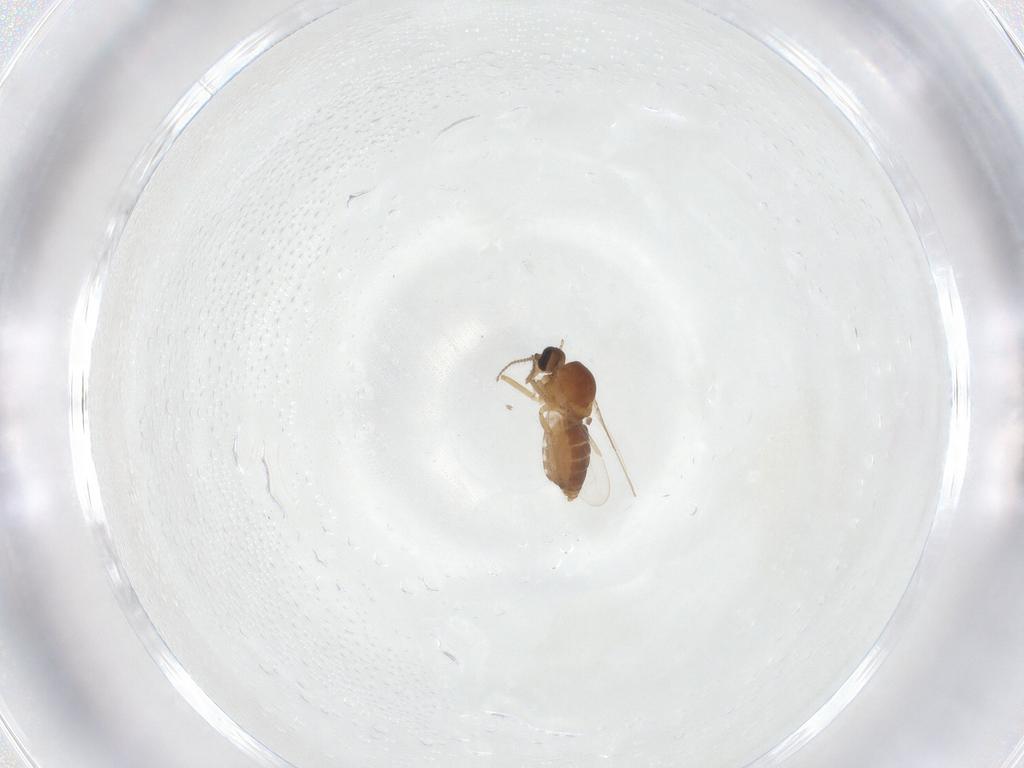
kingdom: Animalia
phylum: Arthropoda
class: Insecta
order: Diptera
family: Ceratopogonidae
